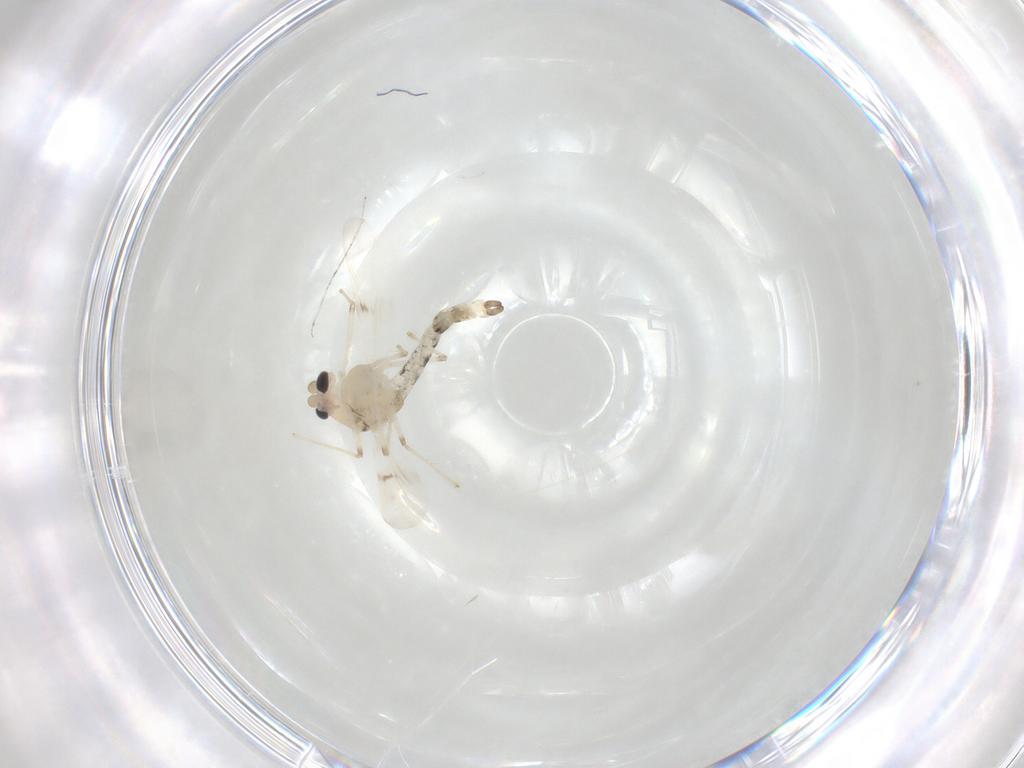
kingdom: Animalia
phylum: Arthropoda
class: Insecta
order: Diptera
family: Chironomidae
